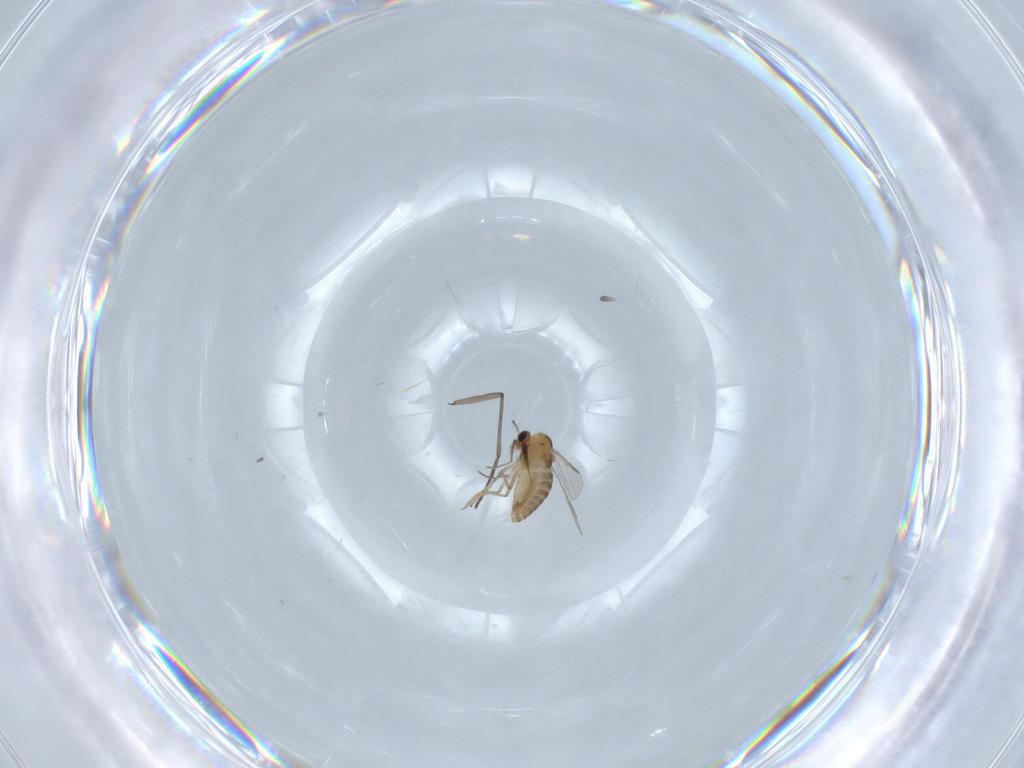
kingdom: Animalia
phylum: Arthropoda
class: Insecta
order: Diptera
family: Chironomidae
